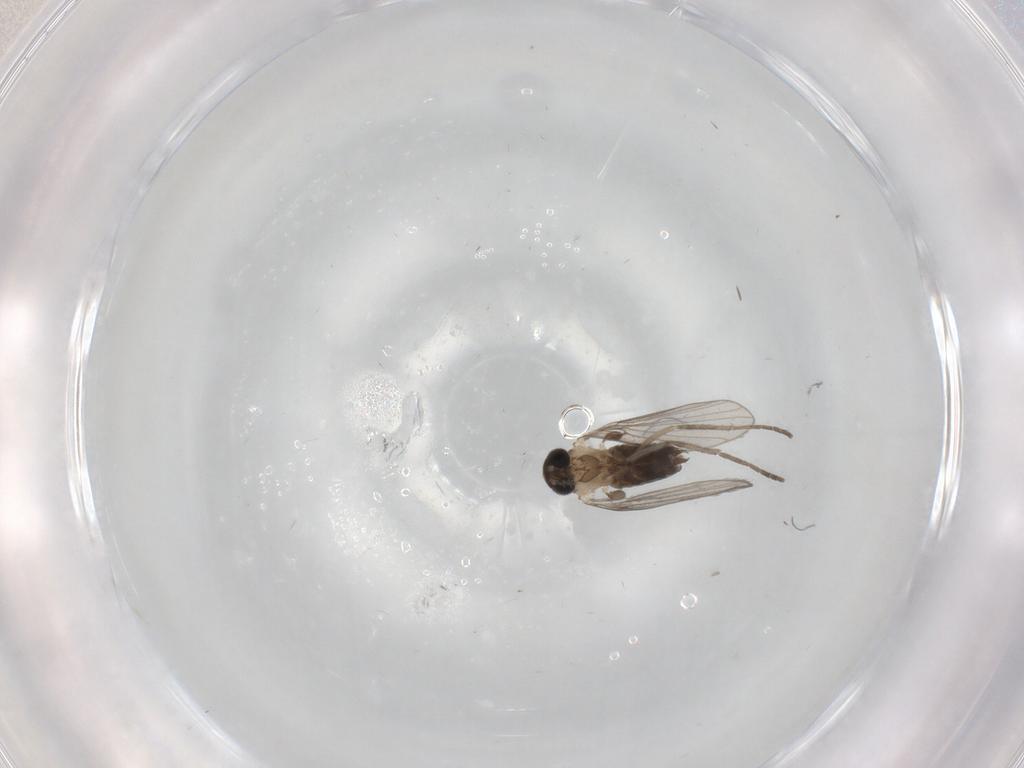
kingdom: Animalia
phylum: Arthropoda
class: Insecta
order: Diptera
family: Psychodidae
